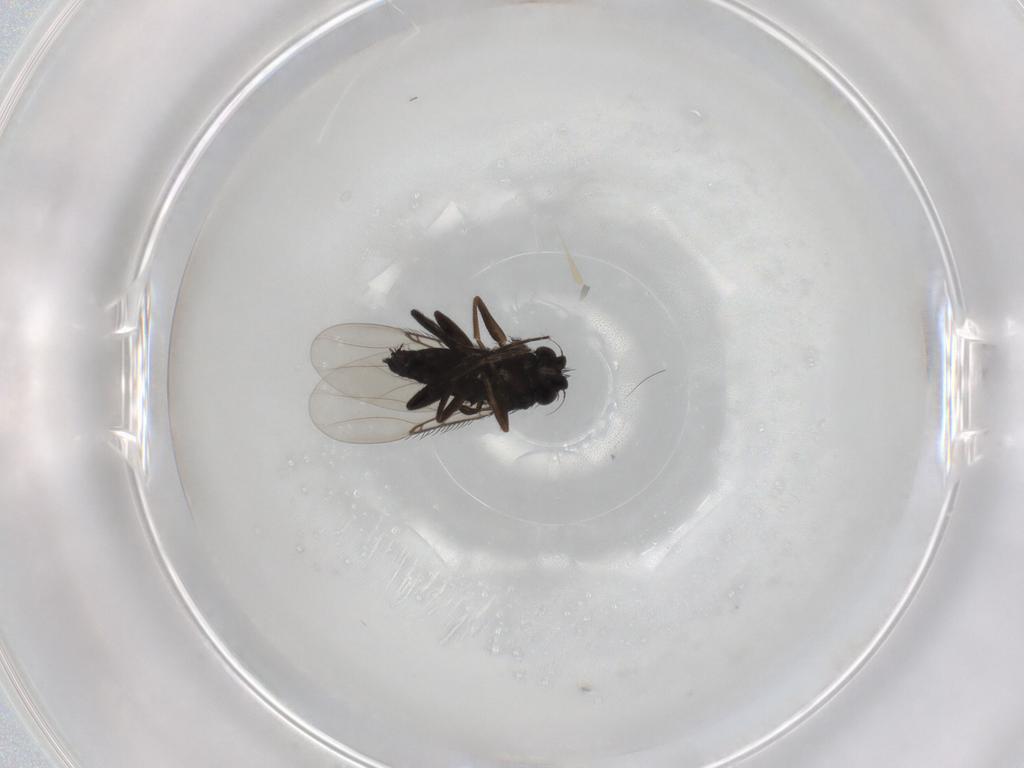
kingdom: Animalia
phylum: Arthropoda
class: Insecta
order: Diptera
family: Phoridae
